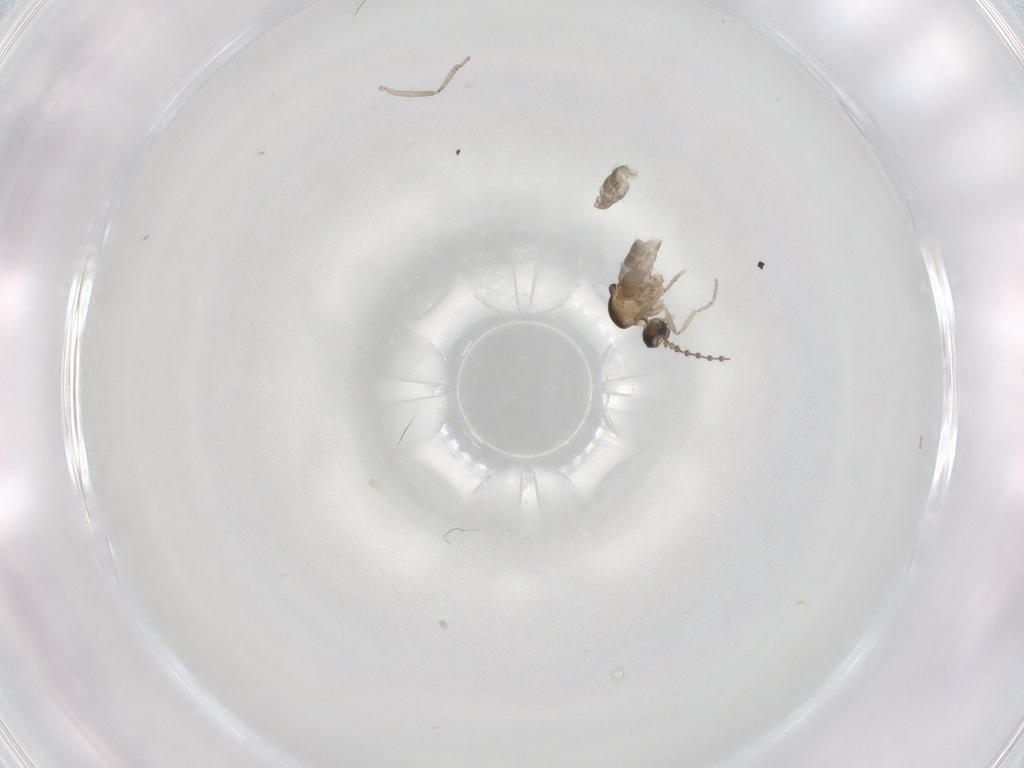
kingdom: Animalia
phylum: Arthropoda
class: Insecta
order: Diptera
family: Cecidomyiidae
